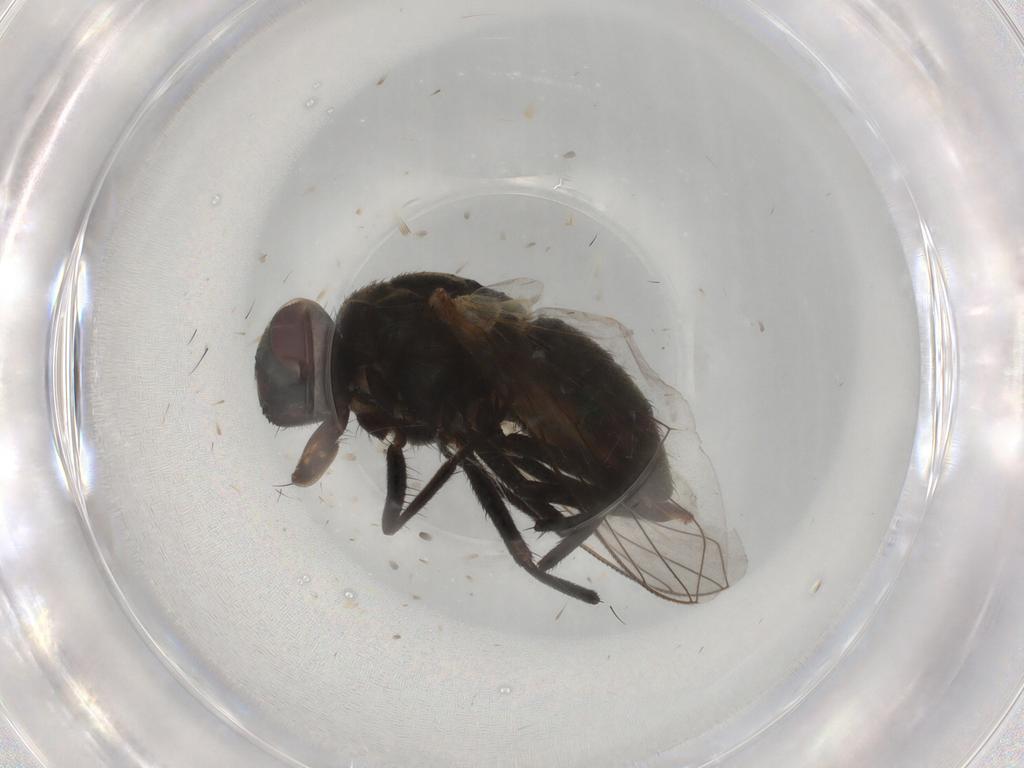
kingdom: Animalia
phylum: Arthropoda
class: Insecta
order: Diptera
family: Muscidae
